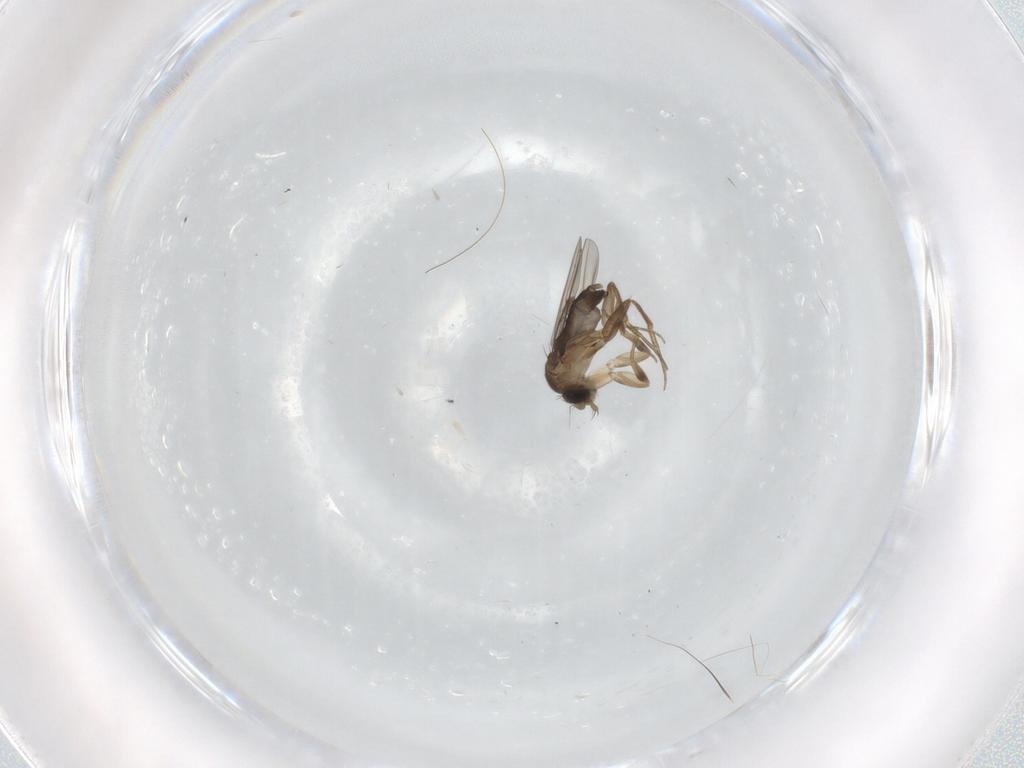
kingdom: Animalia
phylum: Arthropoda
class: Insecta
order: Diptera
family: Phoridae
